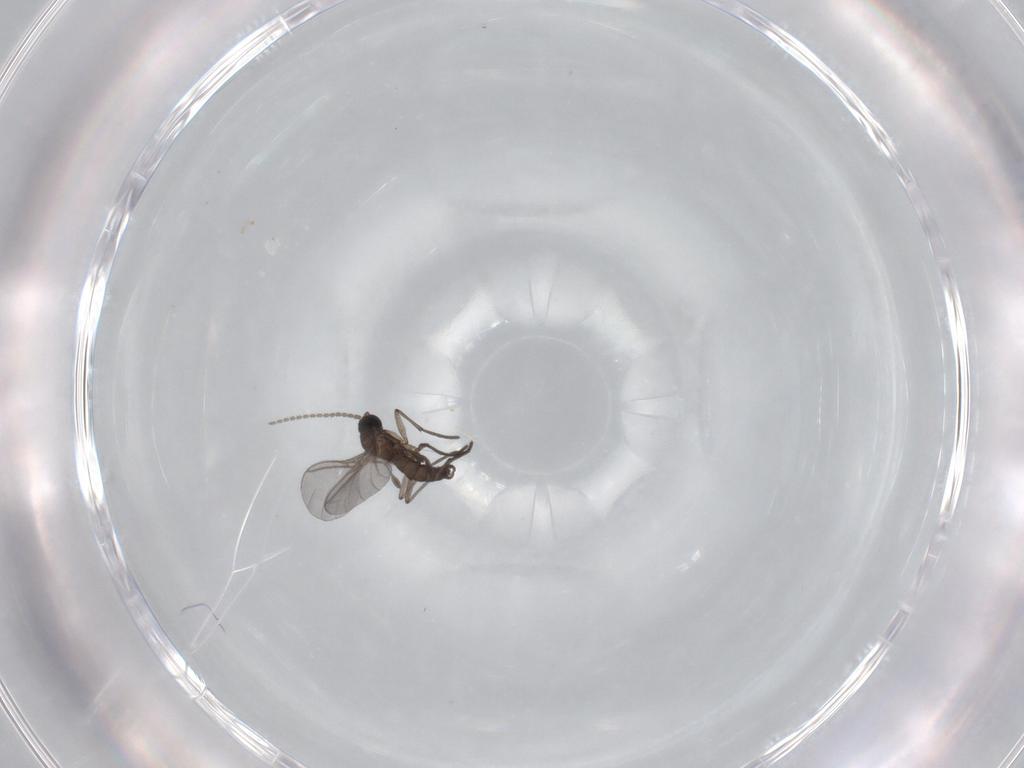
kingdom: Animalia
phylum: Arthropoda
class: Insecta
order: Diptera
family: Sciaridae
